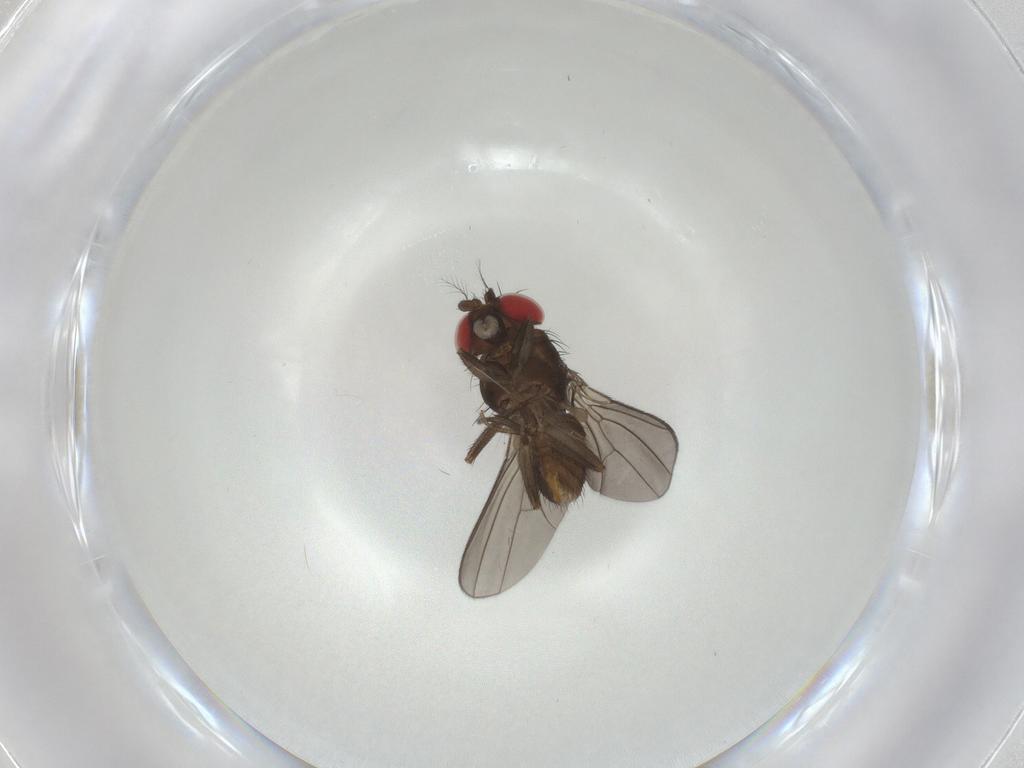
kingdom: Animalia
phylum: Arthropoda
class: Insecta
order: Diptera
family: Drosophilidae
